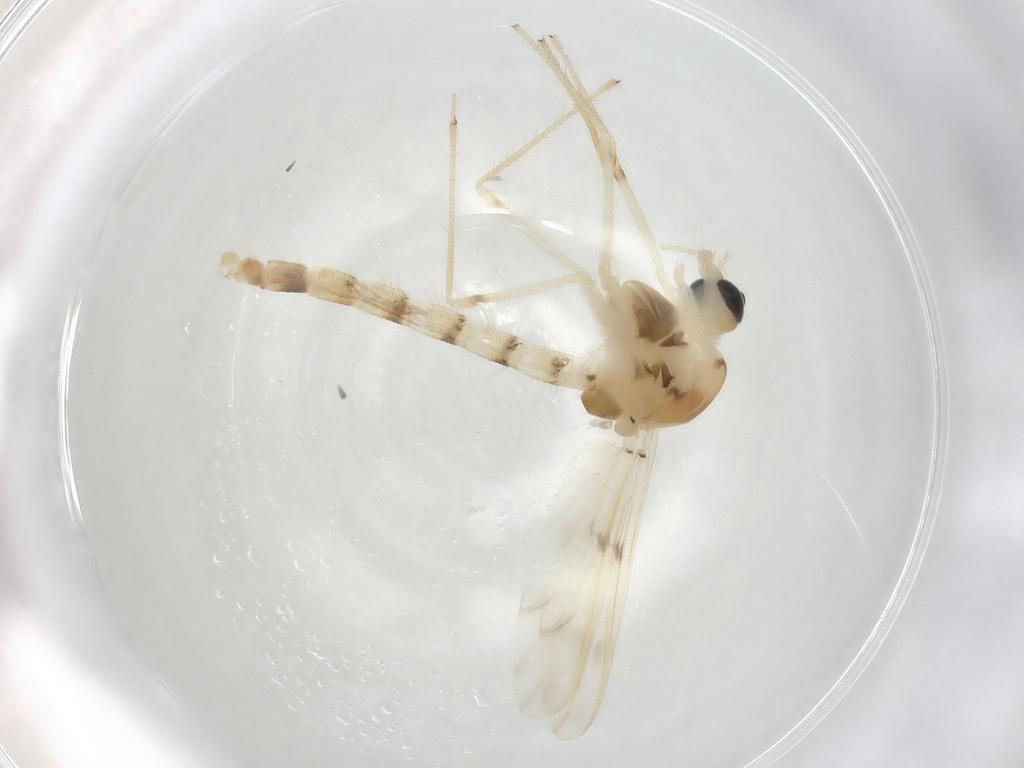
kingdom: Animalia
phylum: Arthropoda
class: Insecta
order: Diptera
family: Chironomidae
